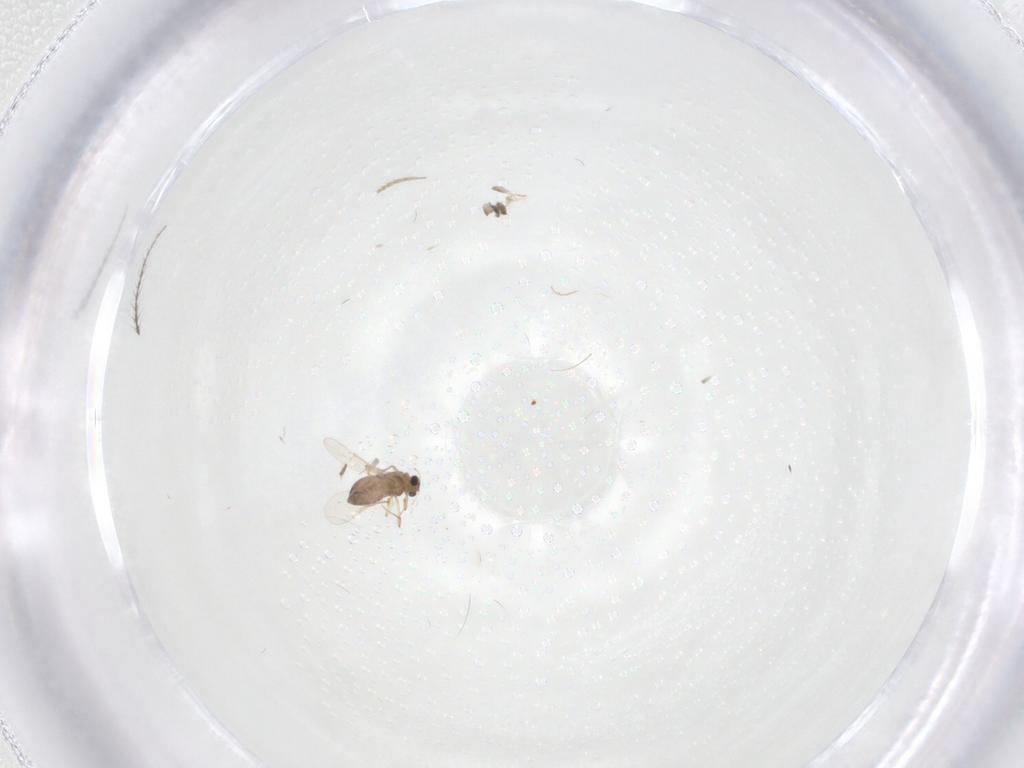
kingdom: Animalia
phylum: Arthropoda
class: Insecta
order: Diptera
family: Chironomidae
